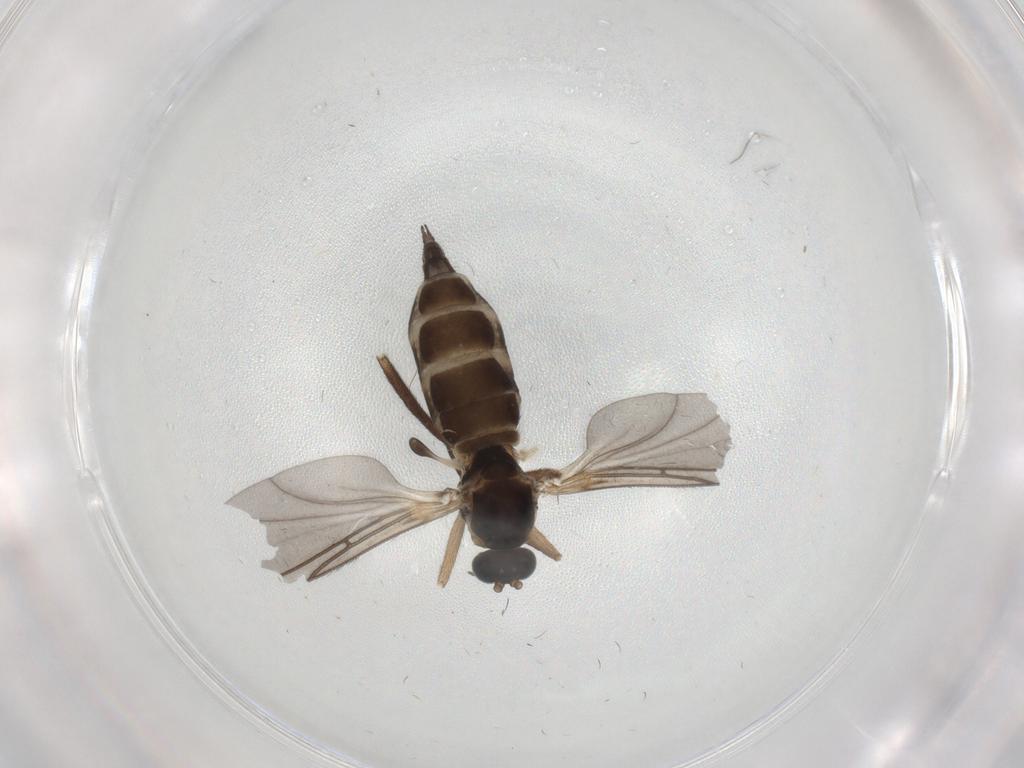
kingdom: Animalia
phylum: Arthropoda
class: Insecta
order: Diptera
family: Sciaridae
